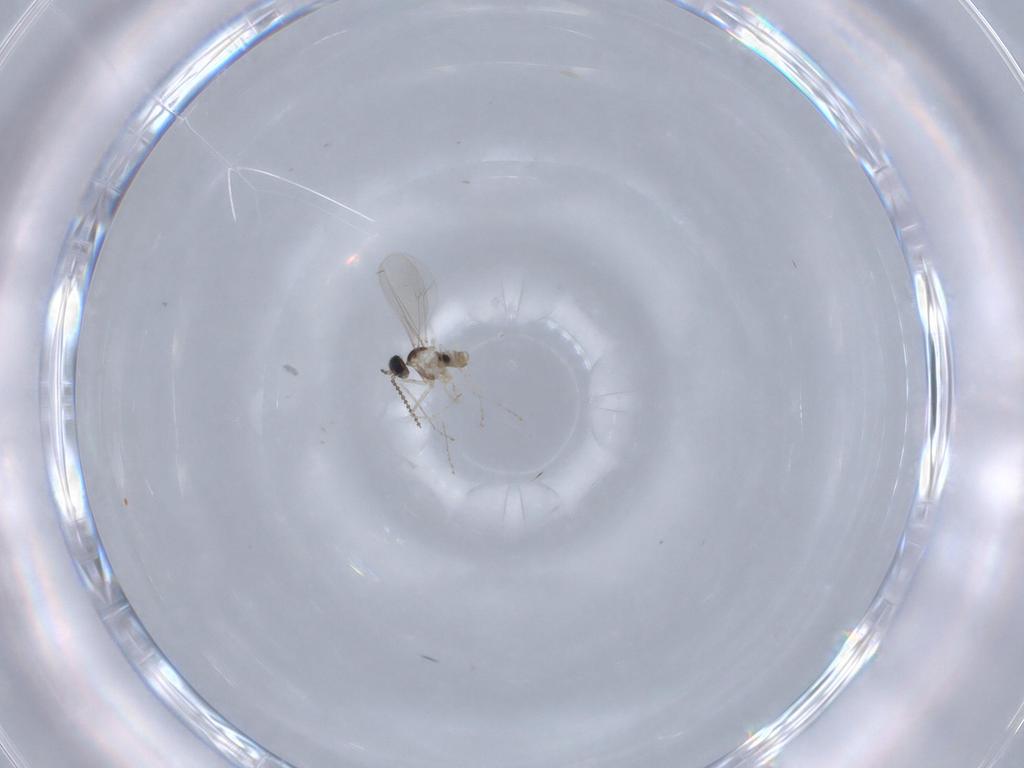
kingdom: Animalia
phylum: Arthropoda
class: Insecta
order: Diptera
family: Cecidomyiidae
